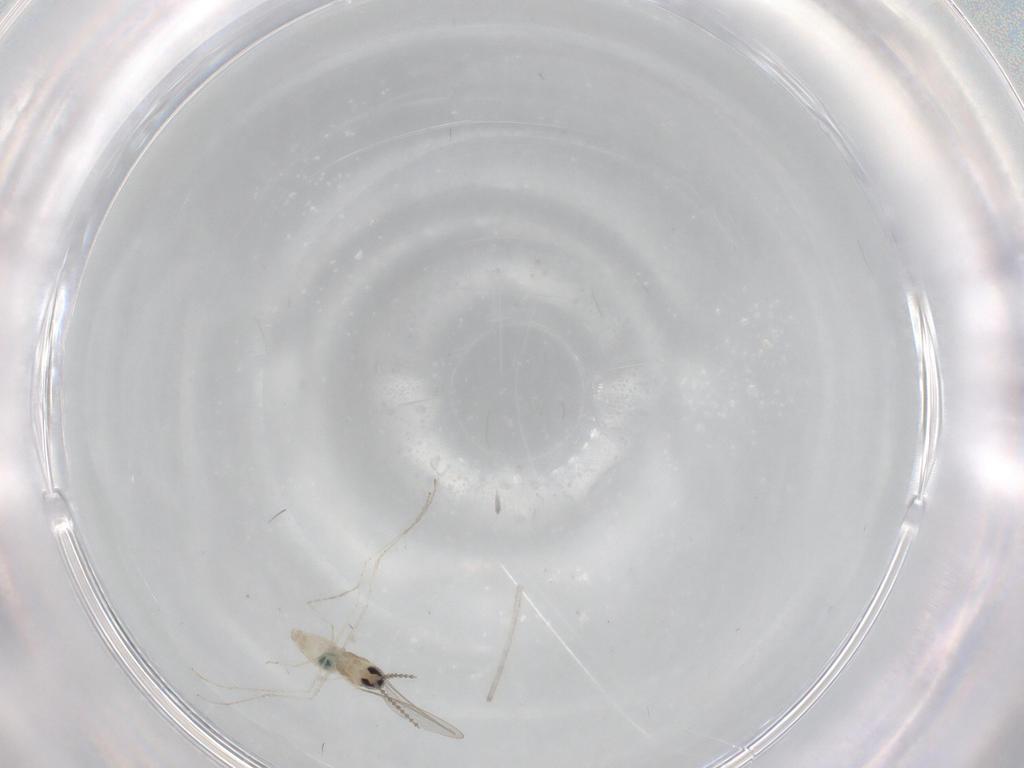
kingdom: Animalia
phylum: Arthropoda
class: Insecta
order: Diptera
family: Cecidomyiidae
